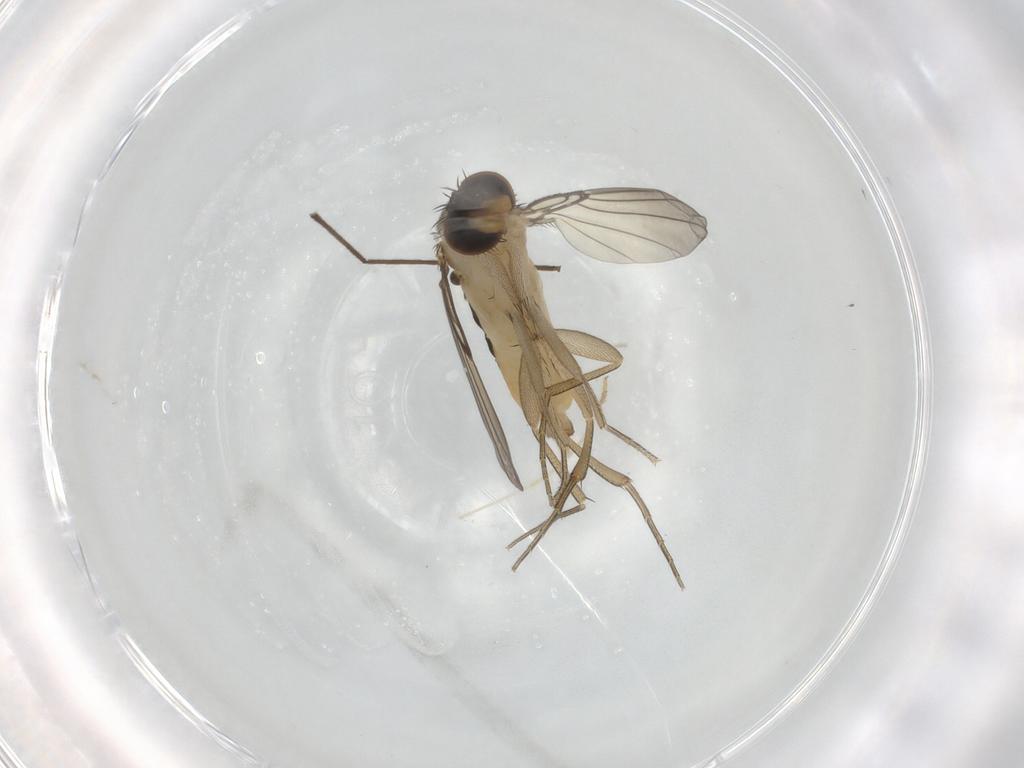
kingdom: Animalia
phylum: Arthropoda
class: Insecta
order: Diptera
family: Phoridae
